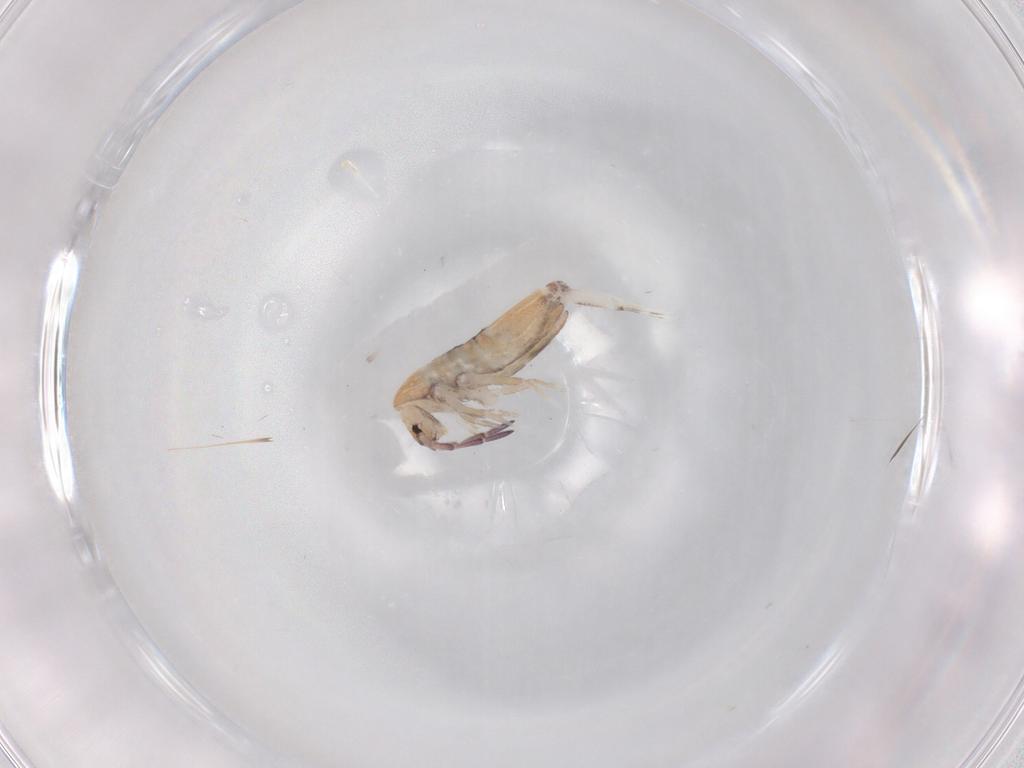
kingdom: Animalia
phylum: Arthropoda
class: Collembola
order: Entomobryomorpha
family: Entomobryidae
